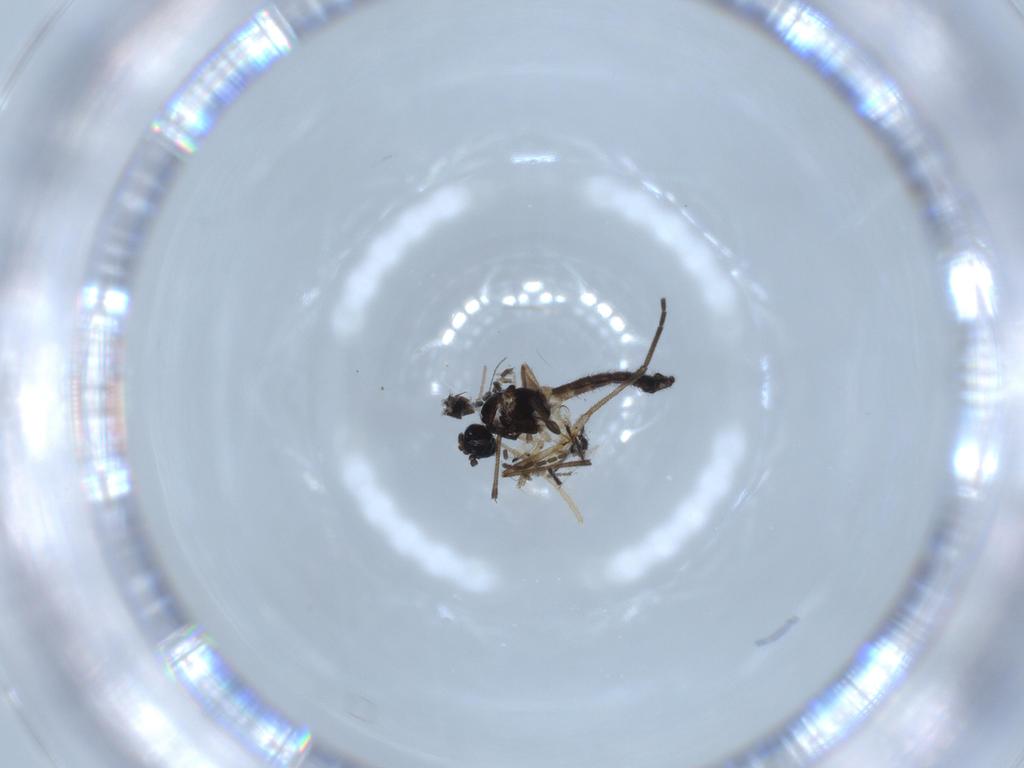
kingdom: Animalia
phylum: Arthropoda
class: Insecta
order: Diptera
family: Sciaridae
